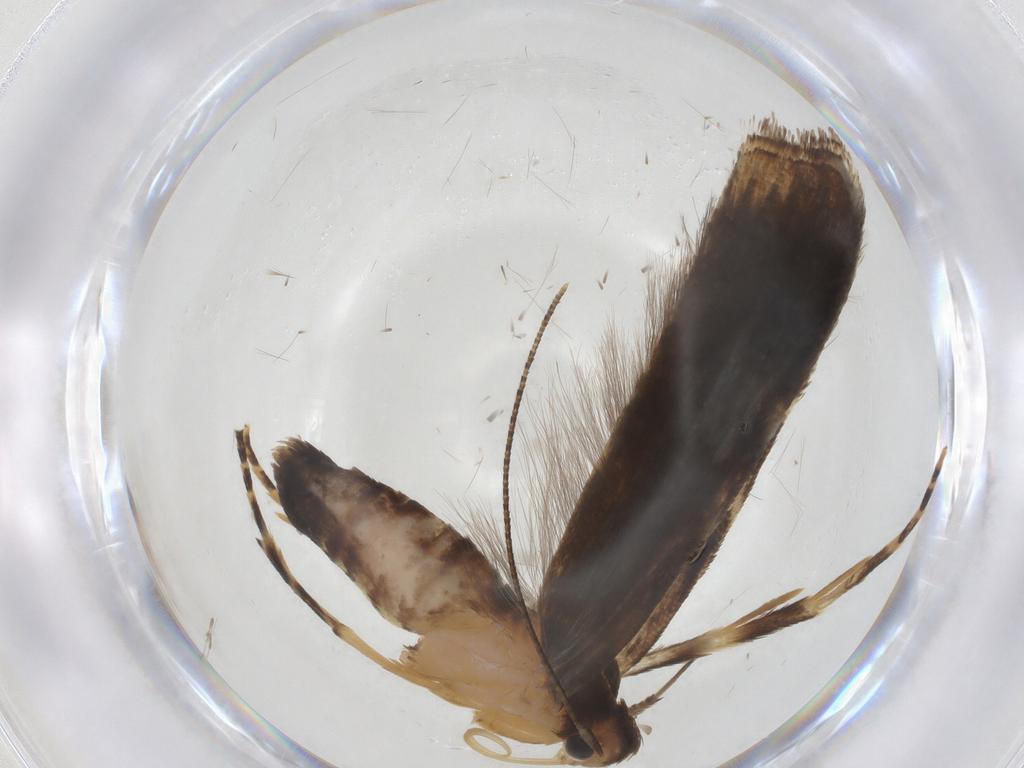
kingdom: Animalia
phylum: Arthropoda
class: Insecta
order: Lepidoptera
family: Gelechiidae
